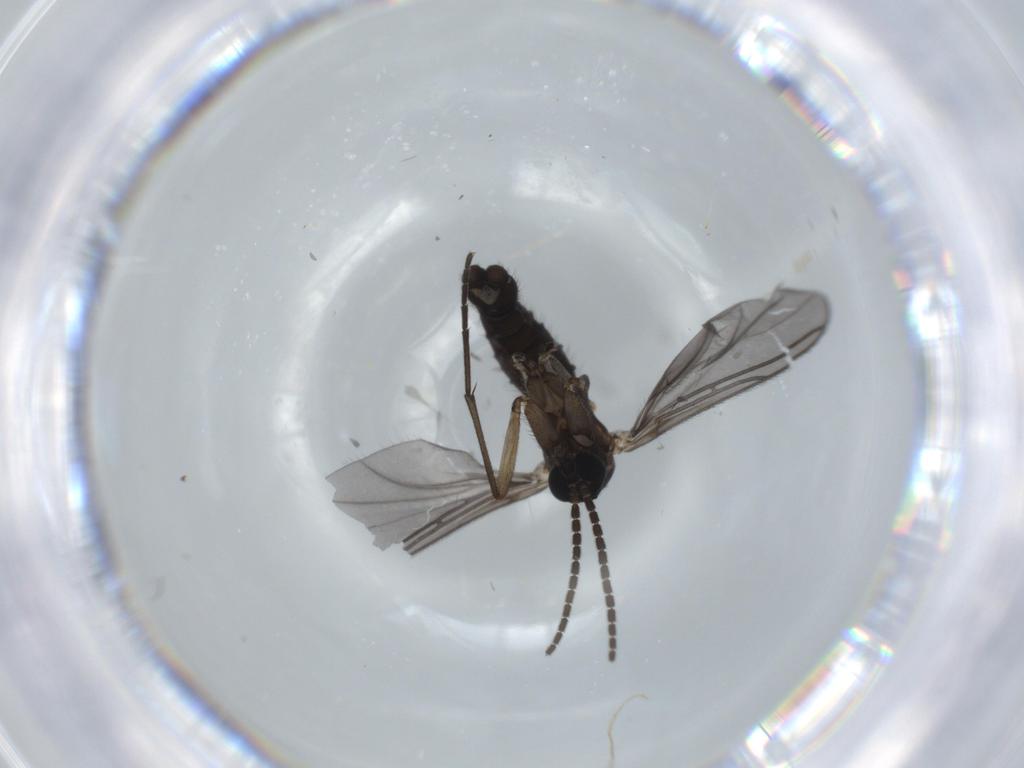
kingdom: Animalia
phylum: Arthropoda
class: Insecta
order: Diptera
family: Sciaridae
